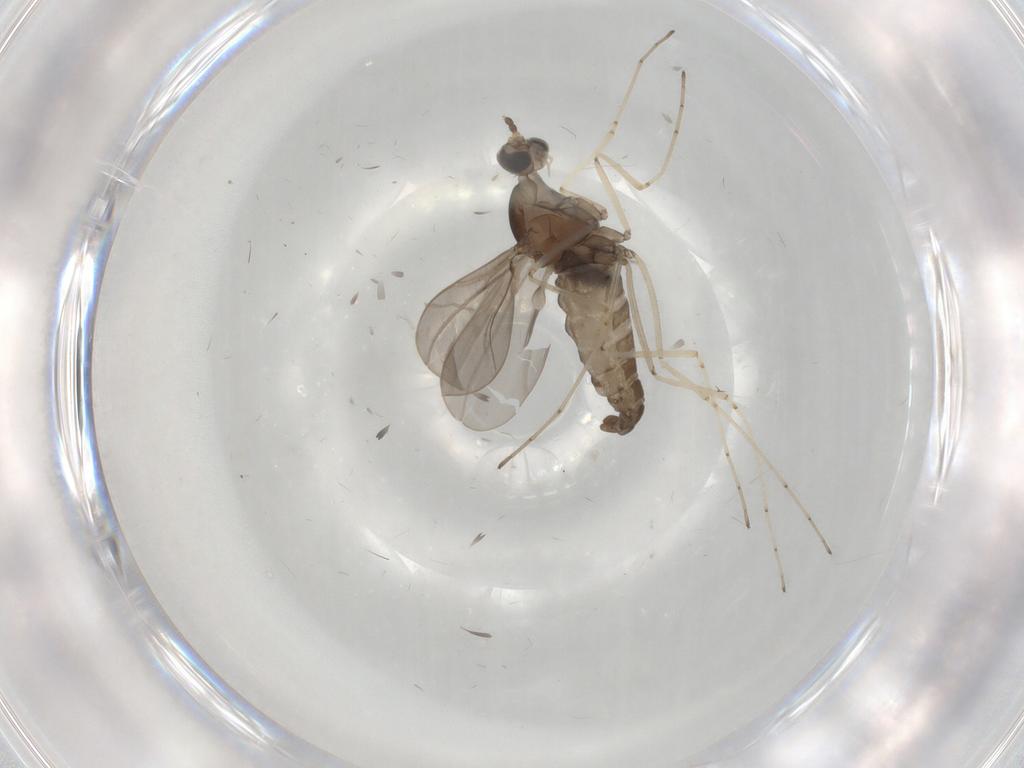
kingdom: Animalia
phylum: Arthropoda
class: Insecta
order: Diptera
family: Cecidomyiidae
